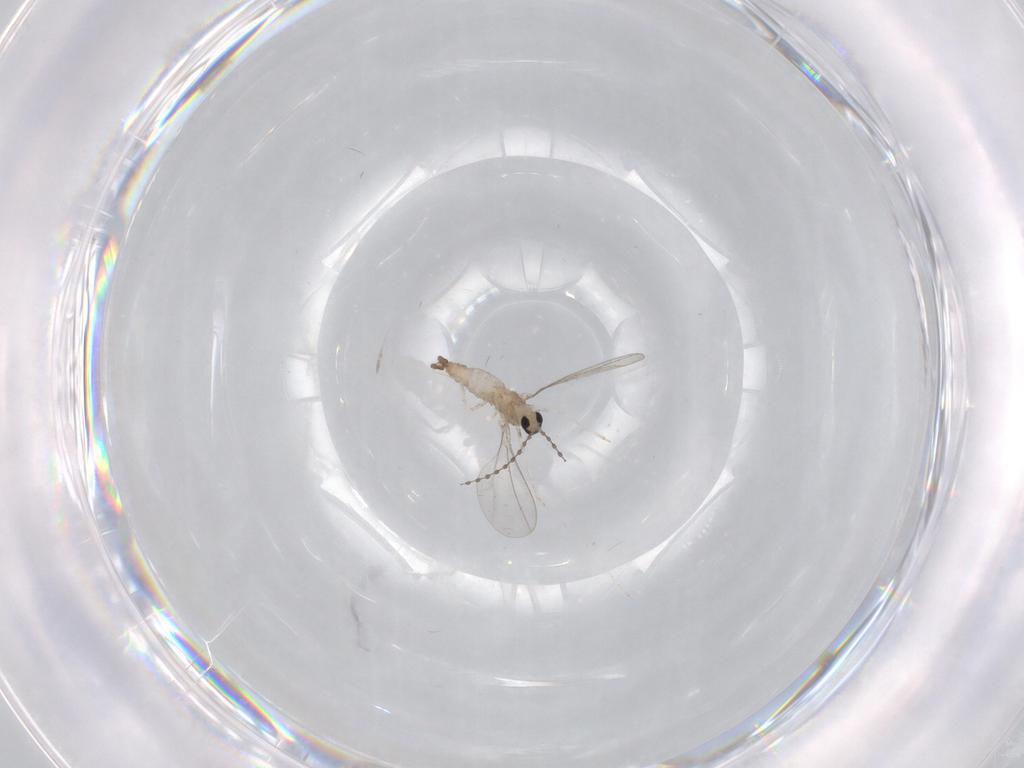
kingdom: Animalia
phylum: Arthropoda
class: Insecta
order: Diptera
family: Cecidomyiidae
